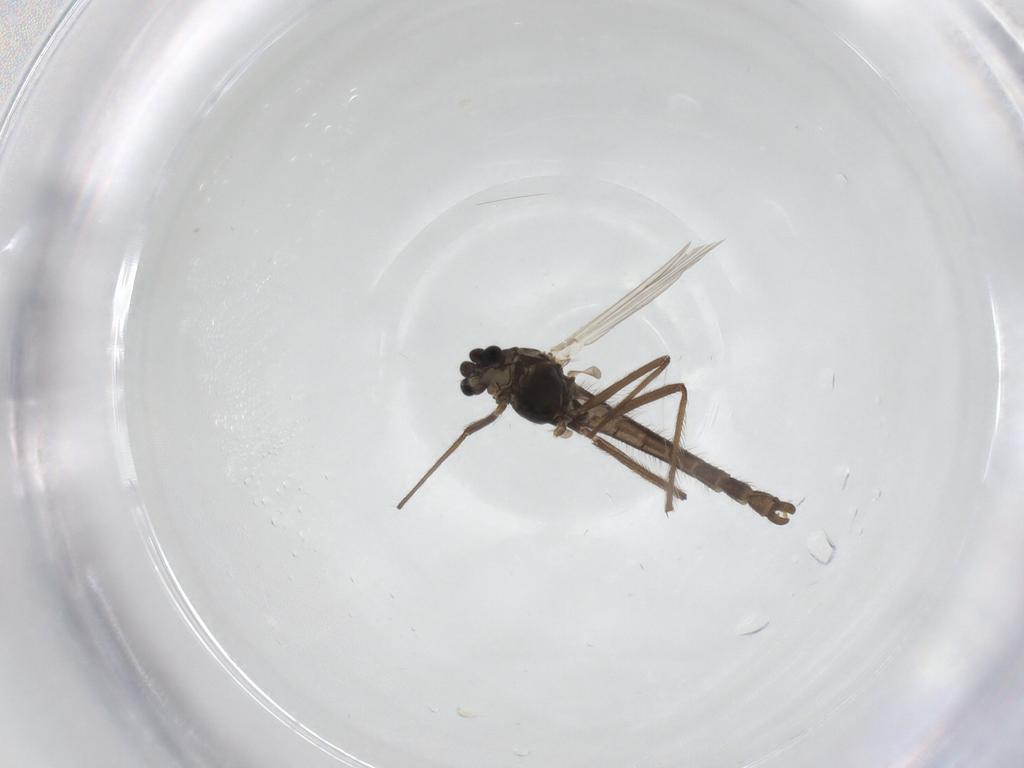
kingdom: Animalia
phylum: Arthropoda
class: Insecta
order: Diptera
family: Chironomidae
